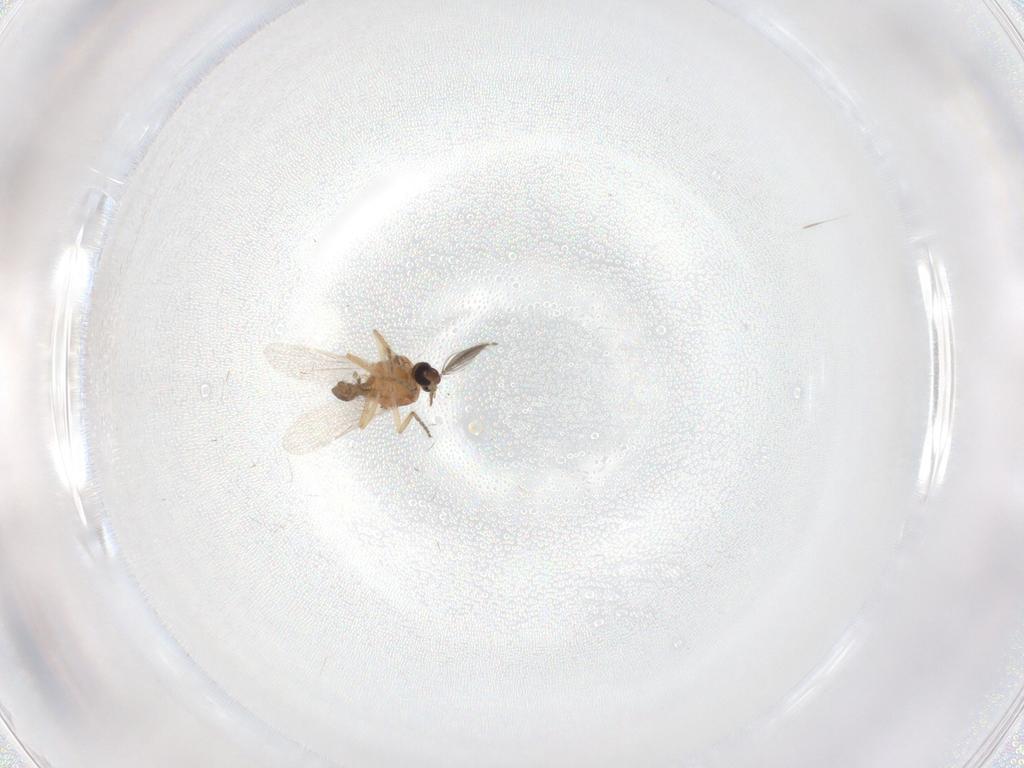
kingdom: Animalia
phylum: Arthropoda
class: Insecta
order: Diptera
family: Ceratopogonidae
